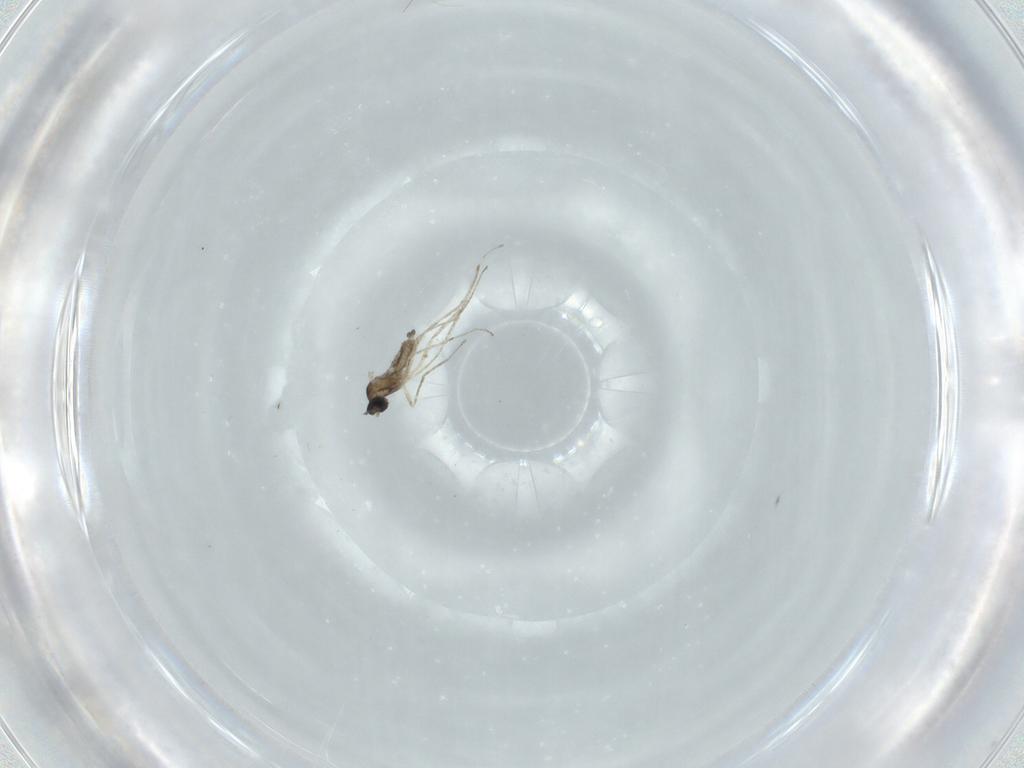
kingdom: Animalia
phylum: Arthropoda
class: Insecta
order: Diptera
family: Cecidomyiidae
